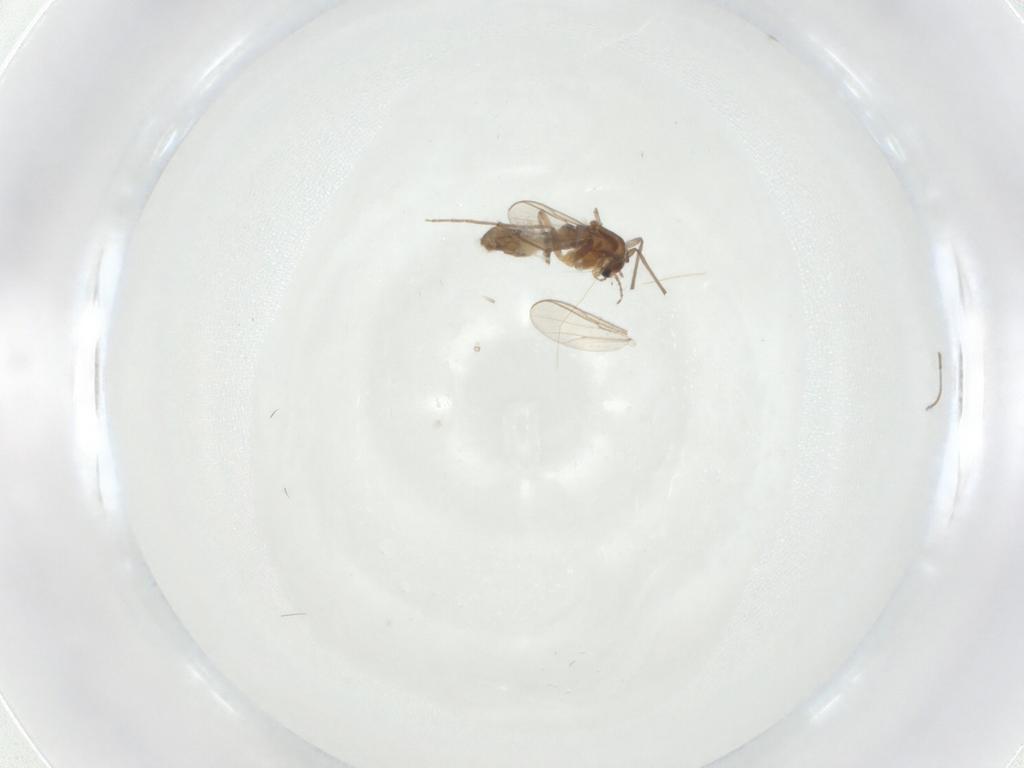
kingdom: Animalia
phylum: Arthropoda
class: Insecta
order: Diptera
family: Chironomidae
